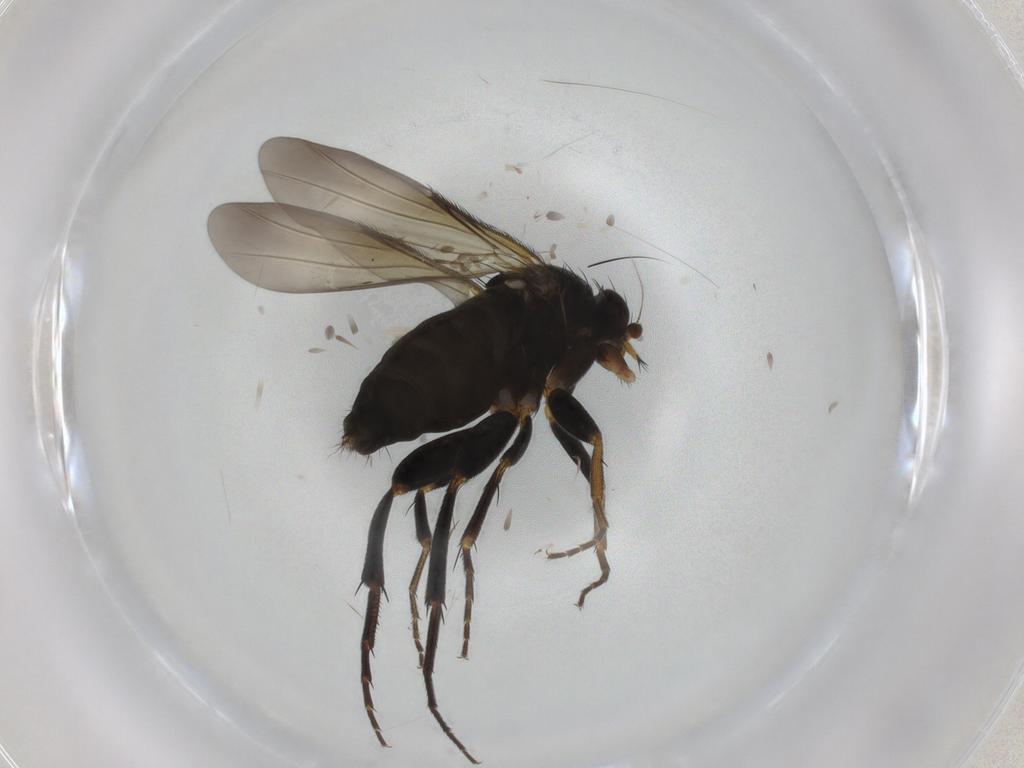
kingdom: Animalia
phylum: Arthropoda
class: Insecta
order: Diptera
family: Phoridae
